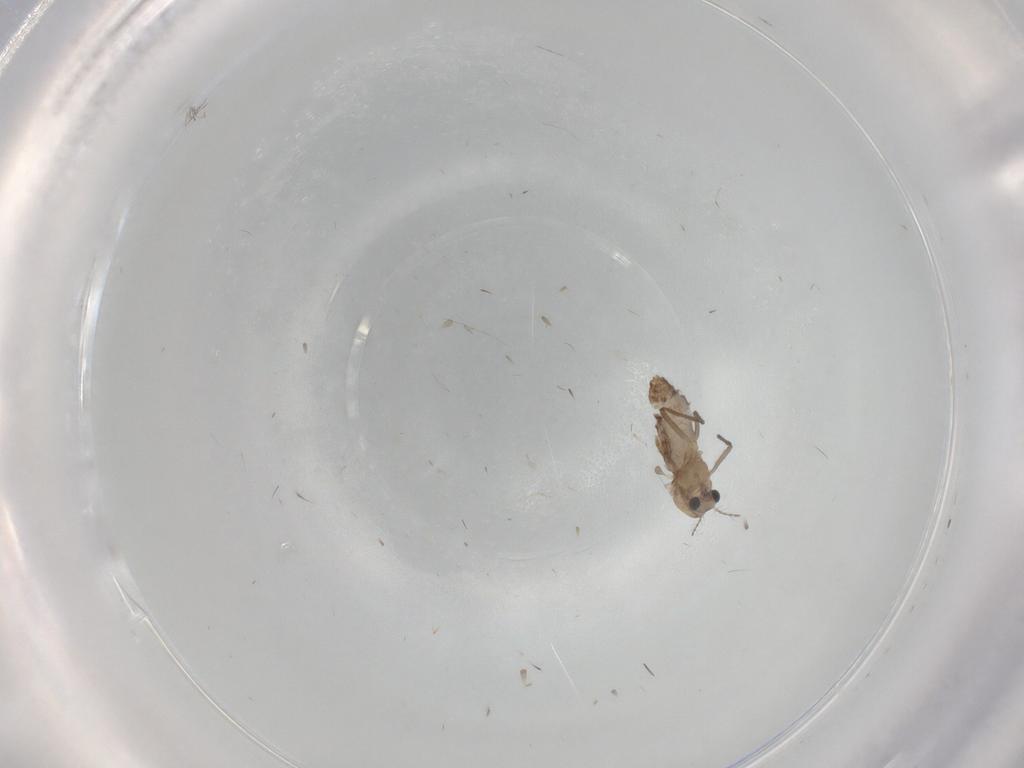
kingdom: Animalia
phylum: Arthropoda
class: Insecta
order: Diptera
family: Chironomidae
